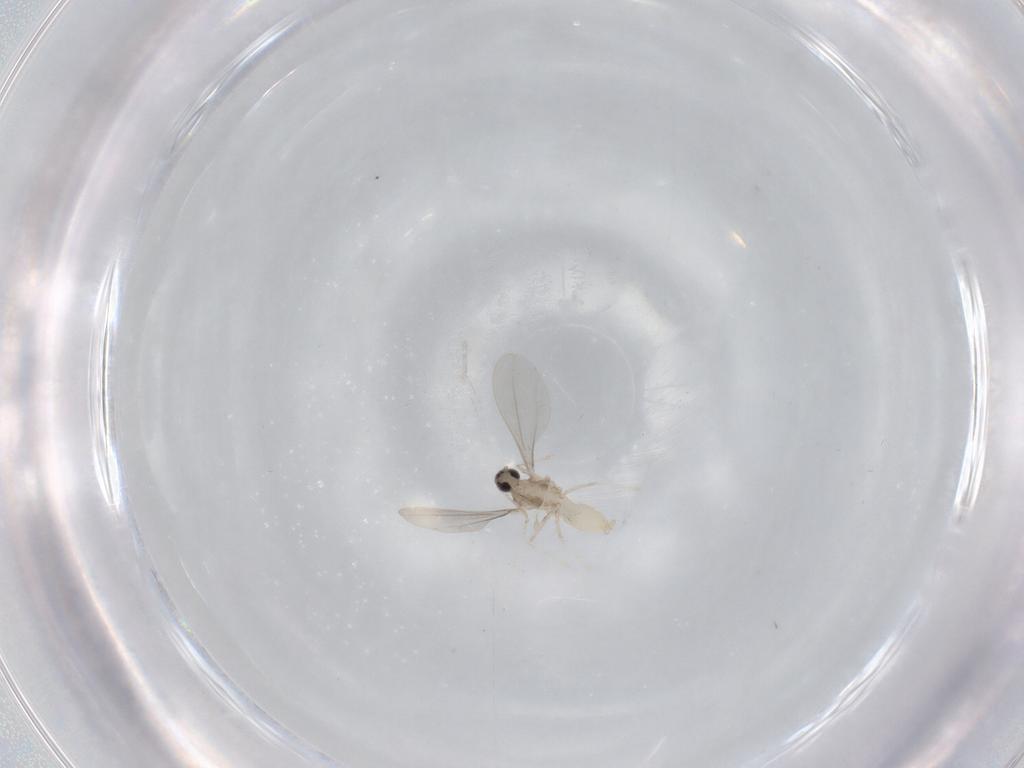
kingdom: Animalia
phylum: Arthropoda
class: Insecta
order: Diptera
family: Cecidomyiidae
